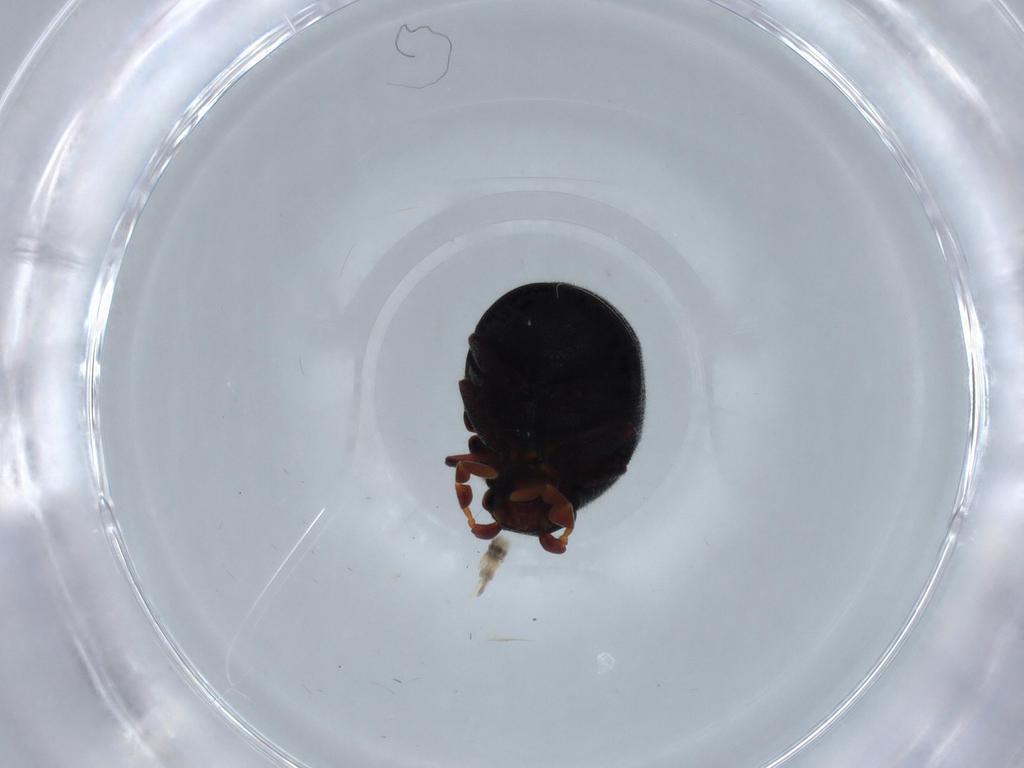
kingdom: Animalia
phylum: Arthropoda
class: Insecta
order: Coleoptera
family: Ptinidae
